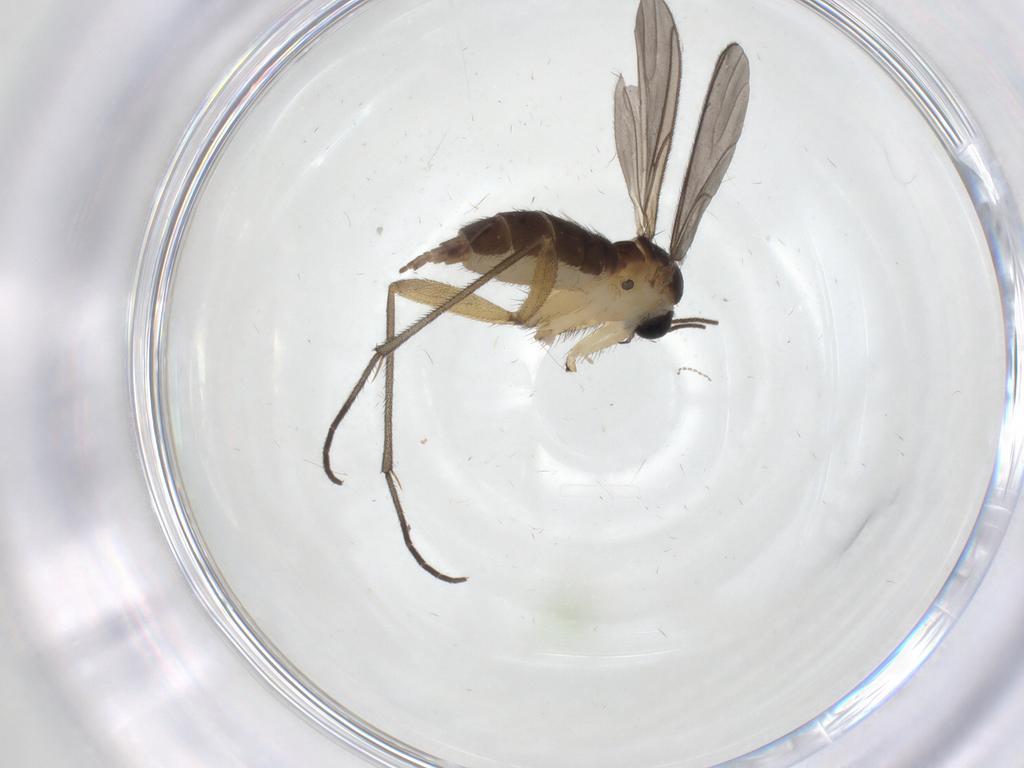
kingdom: Animalia
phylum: Arthropoda
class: Insecta
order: Diptera
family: Sciaridae
